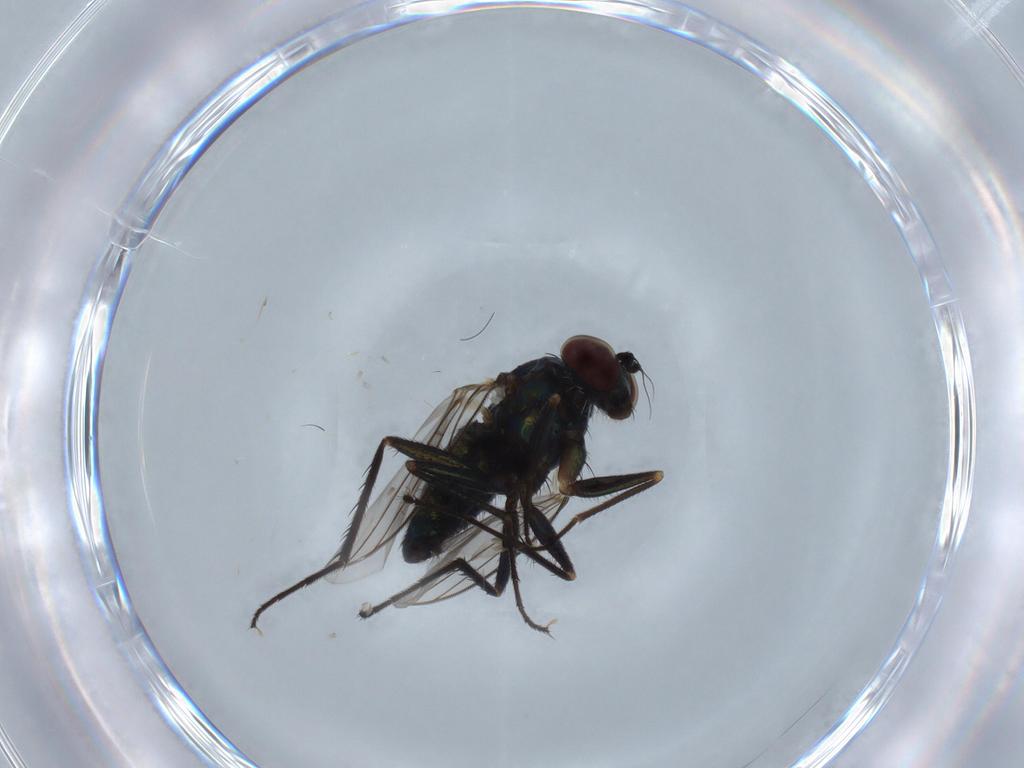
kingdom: Animalia
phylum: Arthropoda
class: Insecta
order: Diptera
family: Dolichopodidae
